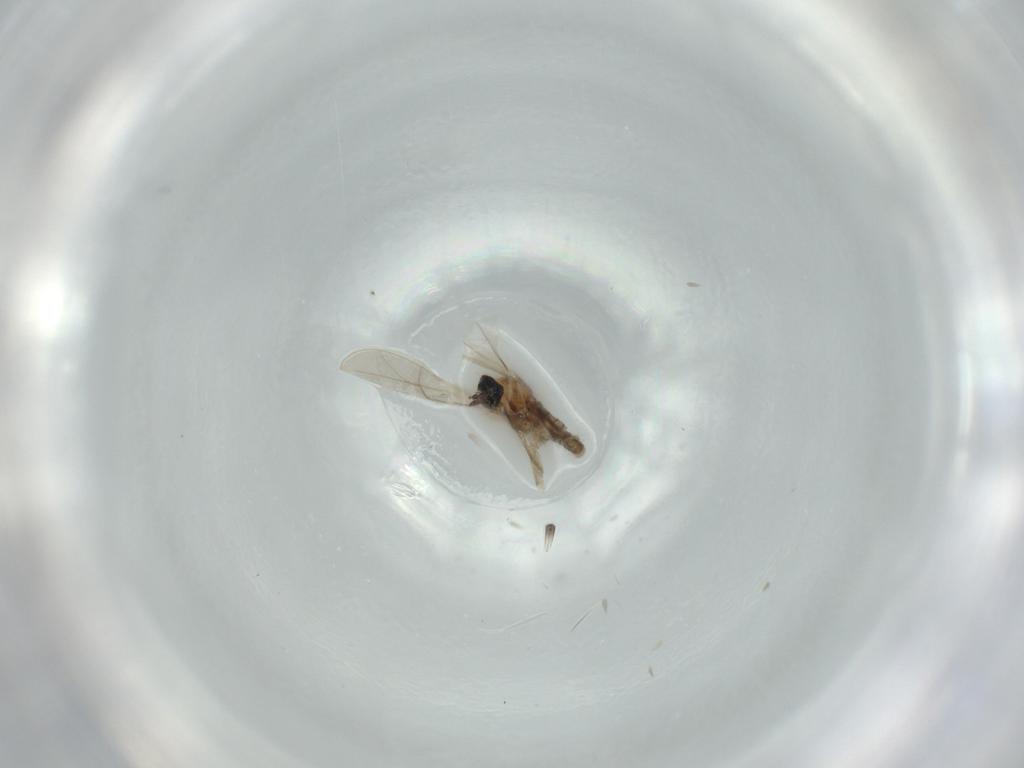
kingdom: Animalia
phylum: Arthropoda
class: Insecta
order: Diptera
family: Cecidomyiidae
